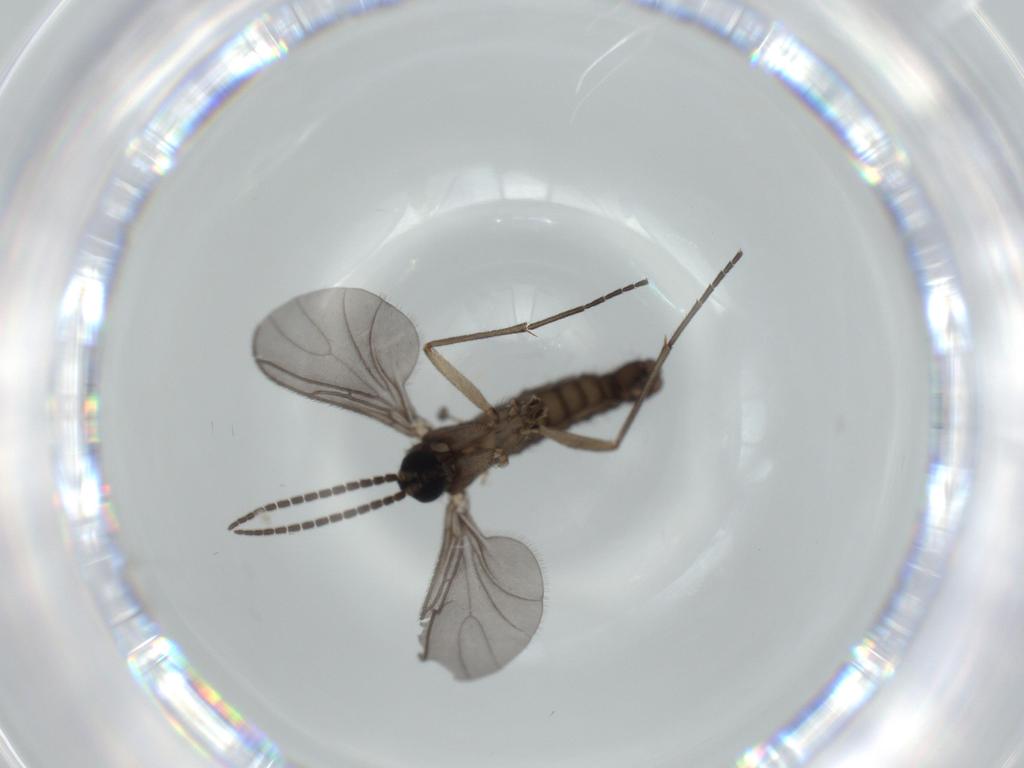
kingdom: Animalia
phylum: Arthropoda
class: Insecta
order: Diptera
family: Sciaridae
